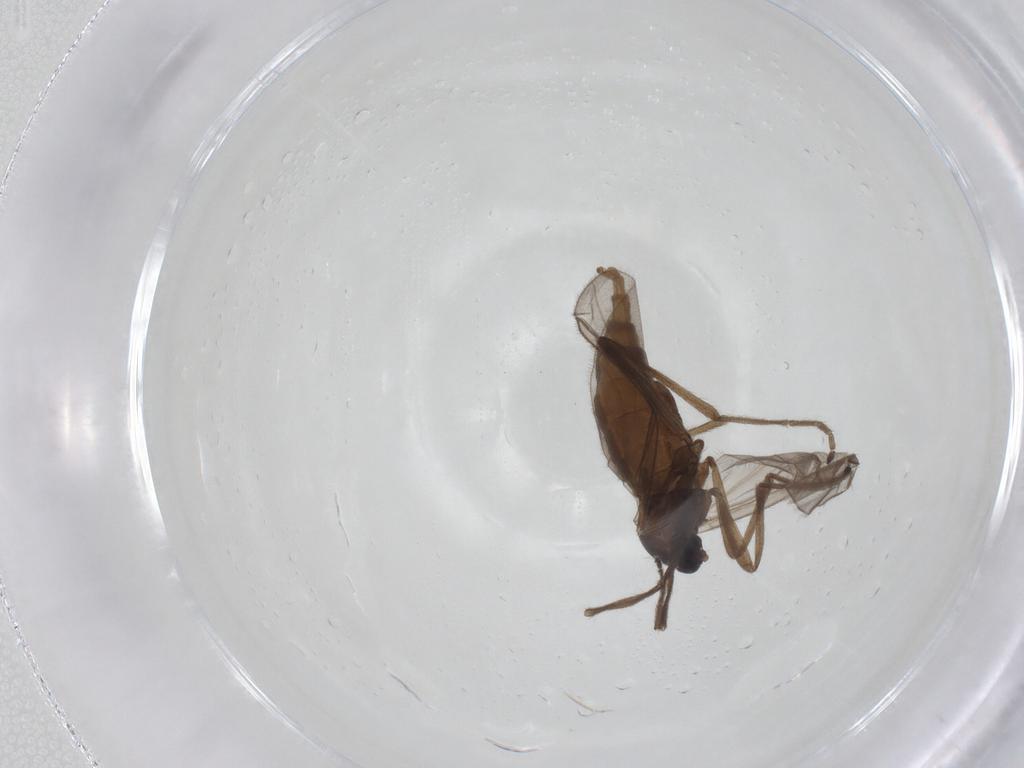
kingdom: Animalia
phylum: Arthropoda
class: Insecta
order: Diptera
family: Cecidomyiidae
